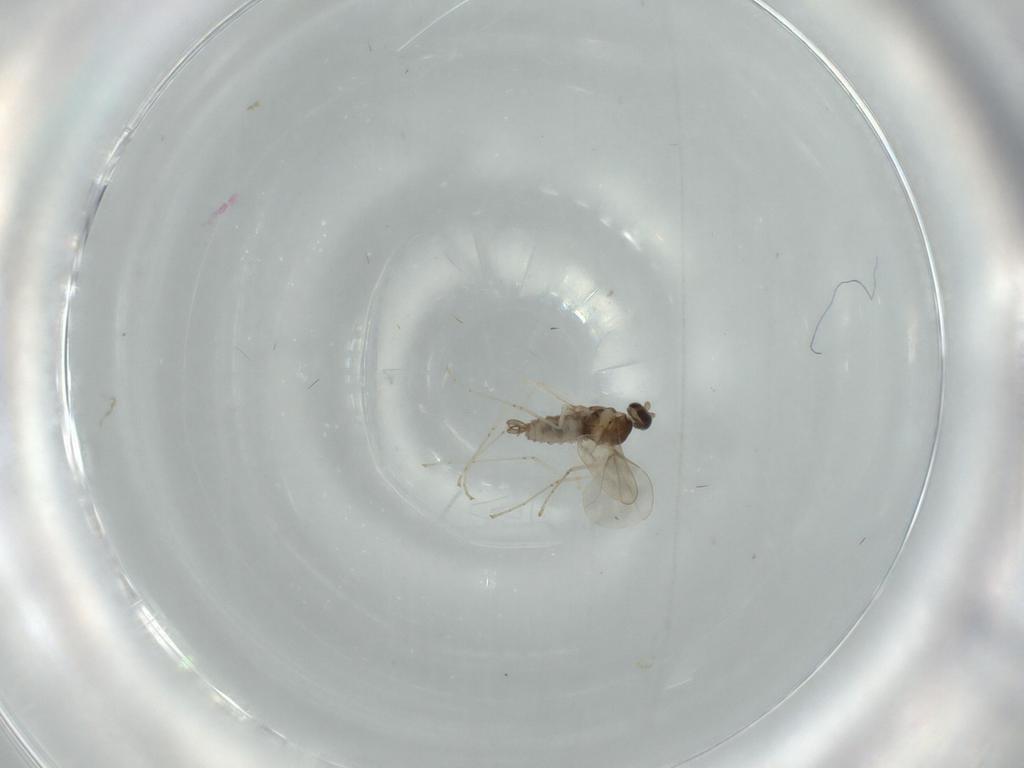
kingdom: Animalia
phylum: Arthropoda
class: Insecta
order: Diptera
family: Cecidomyiidae
